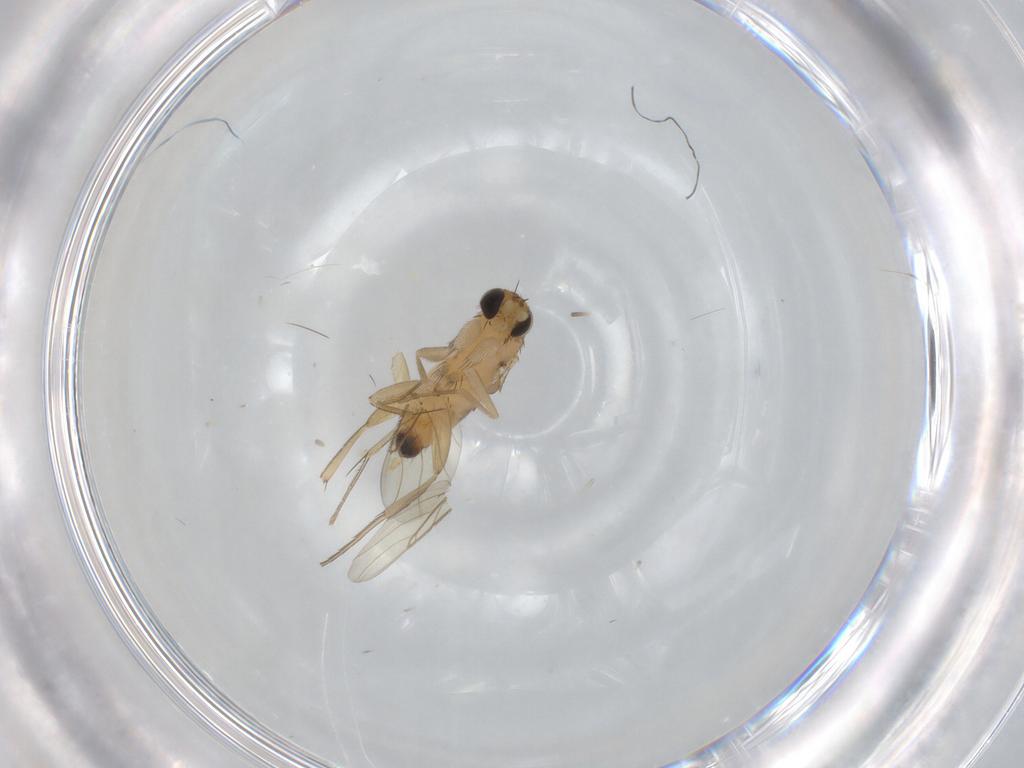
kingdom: Animalia
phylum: Arthropoda
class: Insecta
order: Diptera
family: Phoridae
